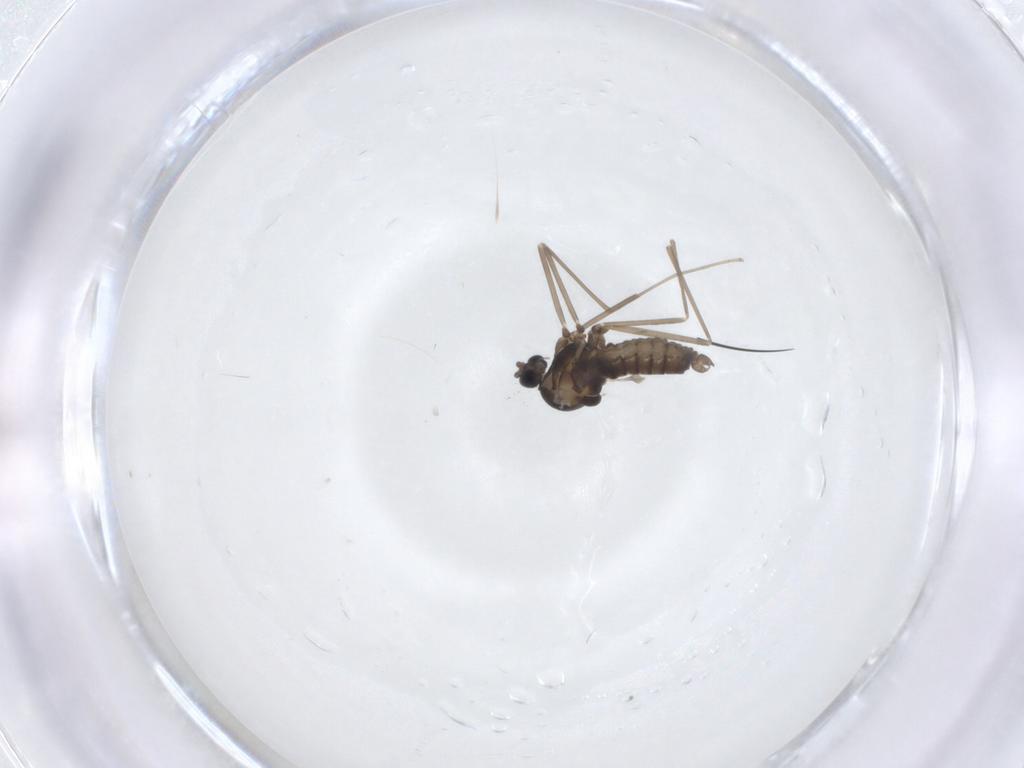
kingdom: Animalia
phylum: Arthropoda
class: Insecta
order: Diptera
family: Cecidomyiidae
